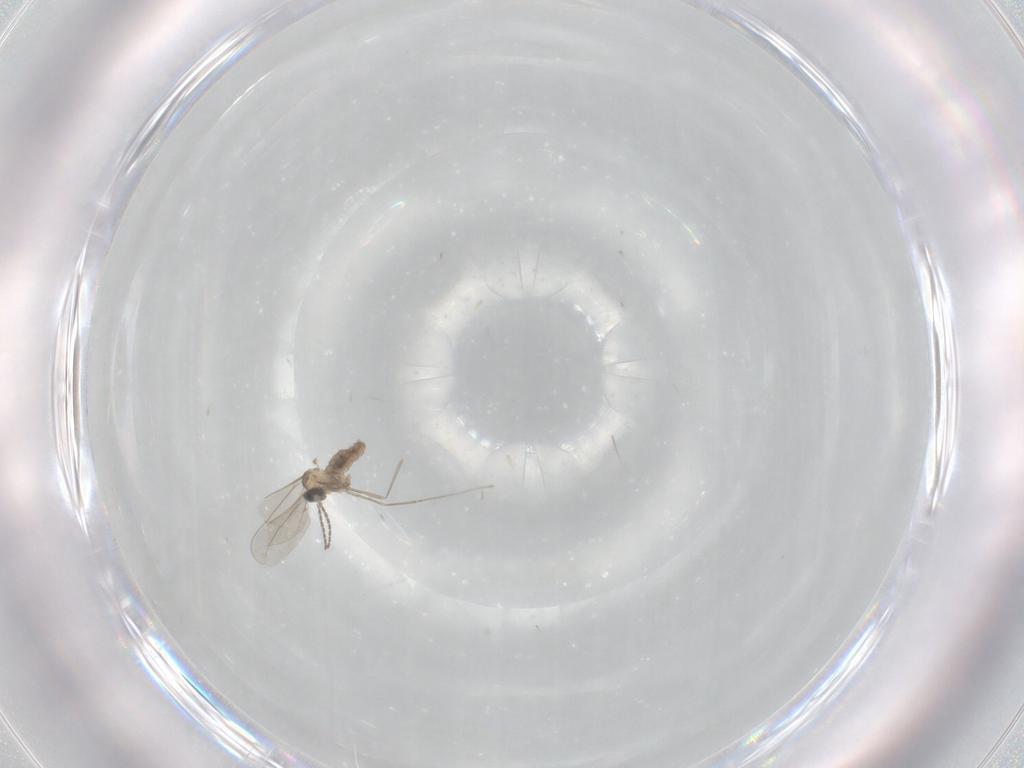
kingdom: Animalia
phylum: Arthropoda
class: Insecta
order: Diptera
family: Cecidomyiidae
